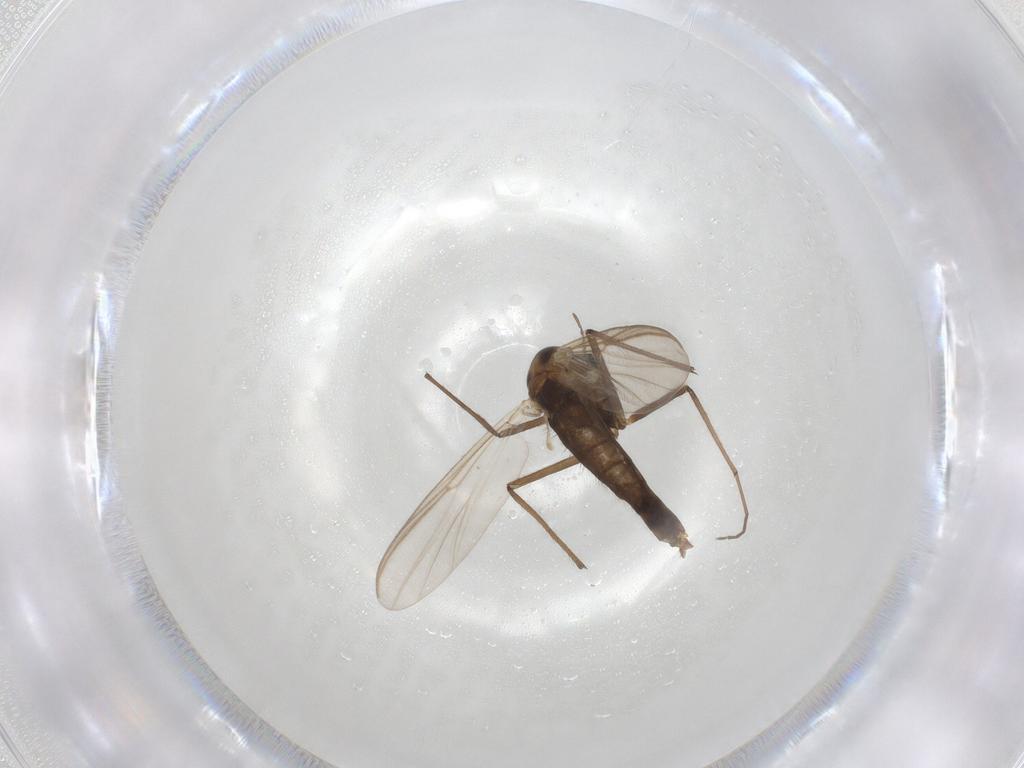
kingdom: Animalia
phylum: Arthropoda
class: Insecta
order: Diptera
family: Chironomidae
